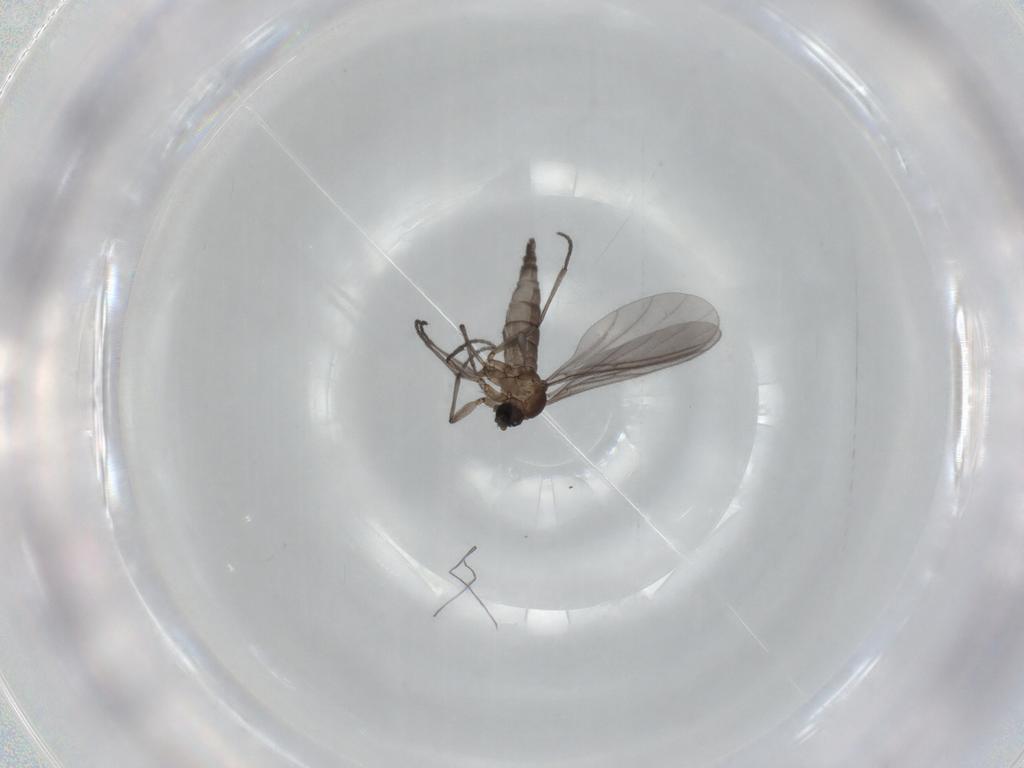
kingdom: Animalia
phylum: Arthropoda
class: Insecta
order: Diptera
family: Sciaridae
